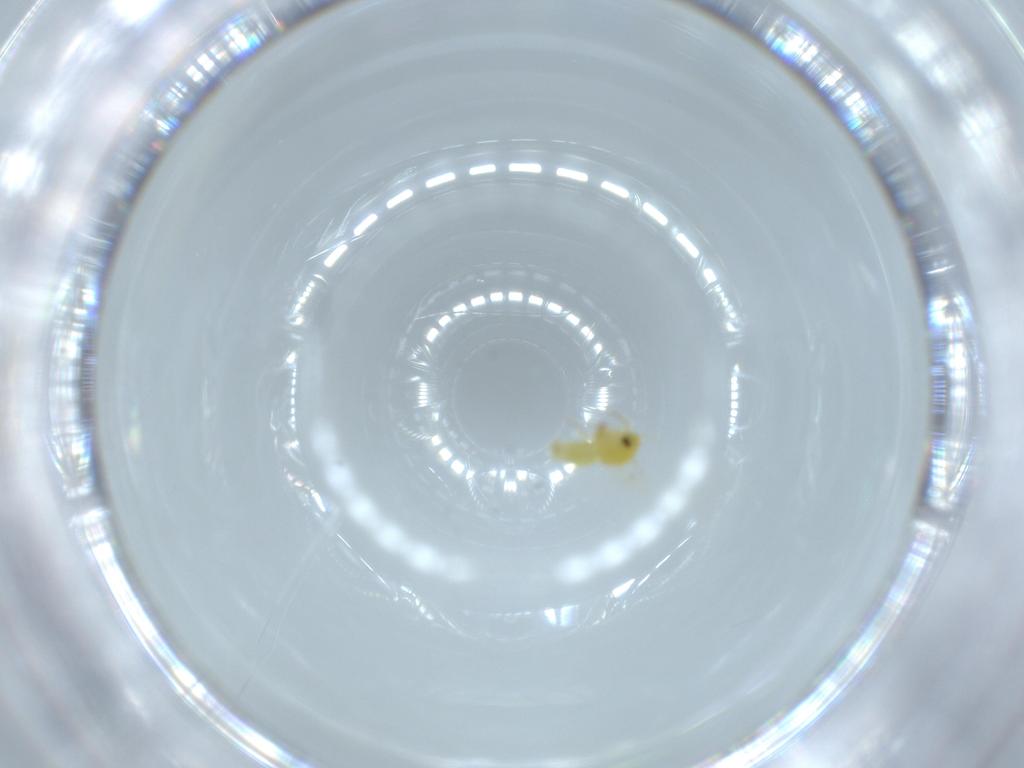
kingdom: Animalia
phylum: Arthropoda
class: Insecta
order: Hemiptera
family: Aleyrodidae
